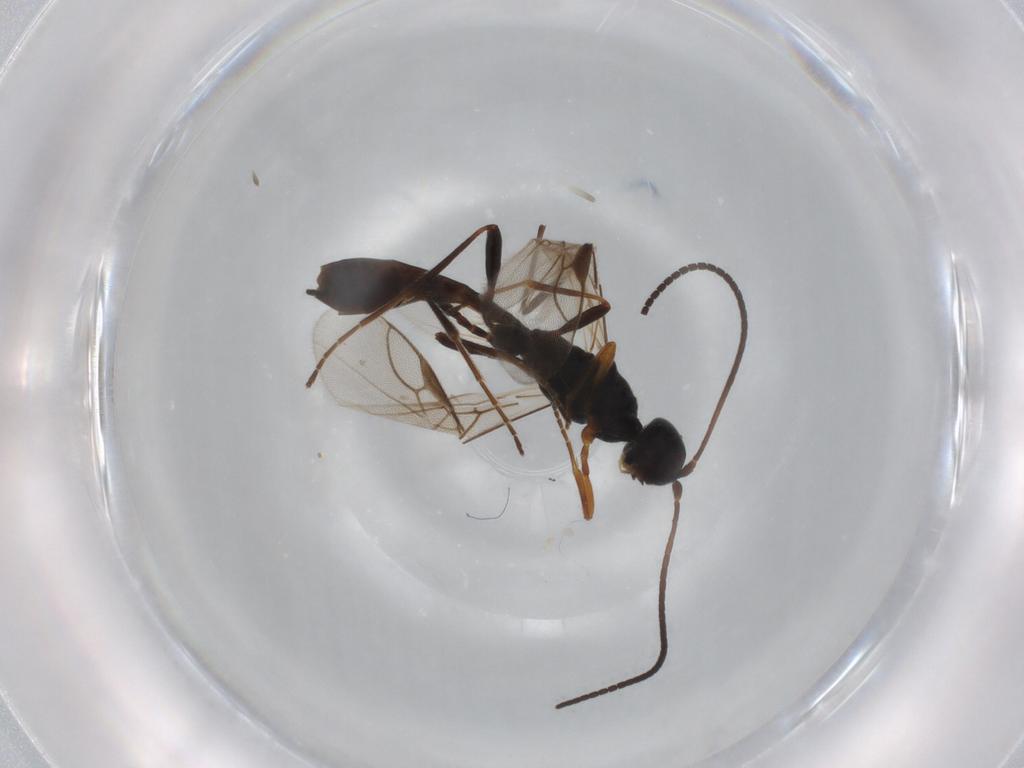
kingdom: Animalia
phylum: Arthropoda
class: Insecta
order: Hymenoptera
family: Braconidae
